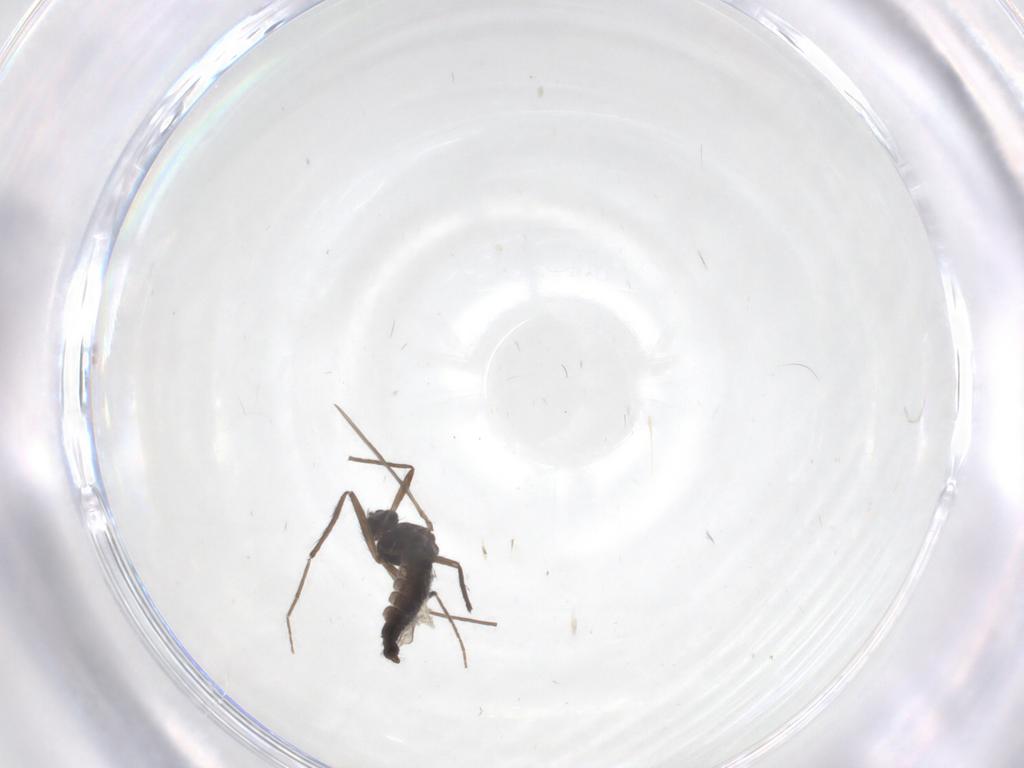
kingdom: Animalia
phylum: Arthropoda
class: Insecta
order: Diptera
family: Chironomidae
